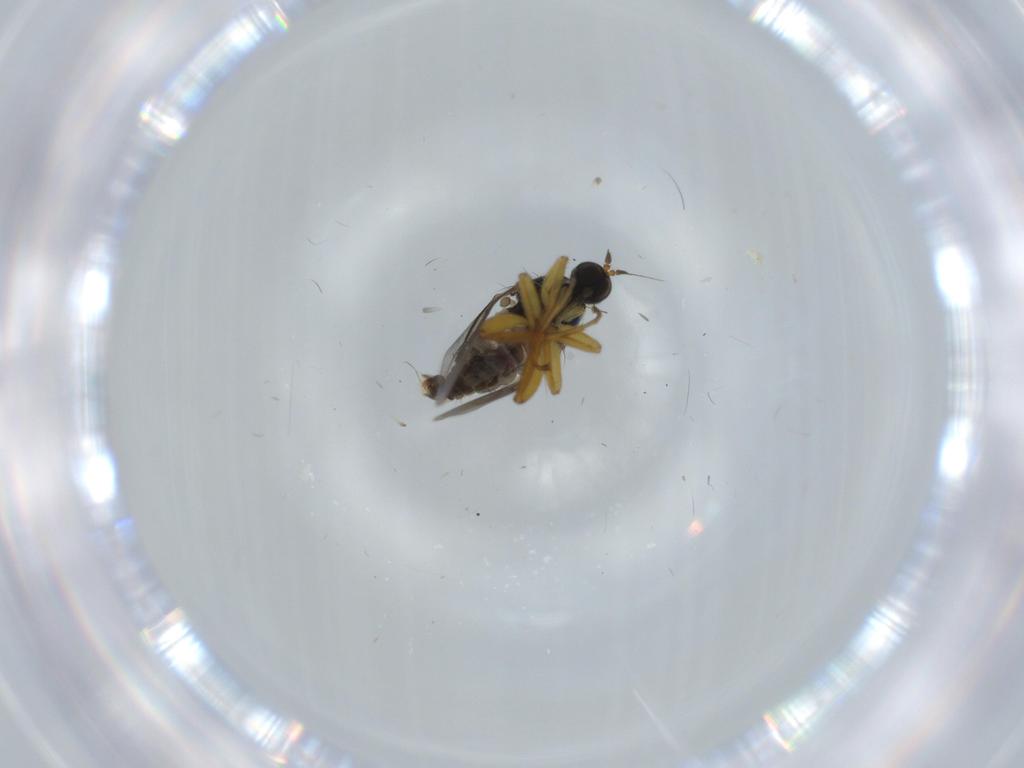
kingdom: Animalia
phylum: Arthropoda
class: Insecta
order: Diptera
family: Hybotidae
